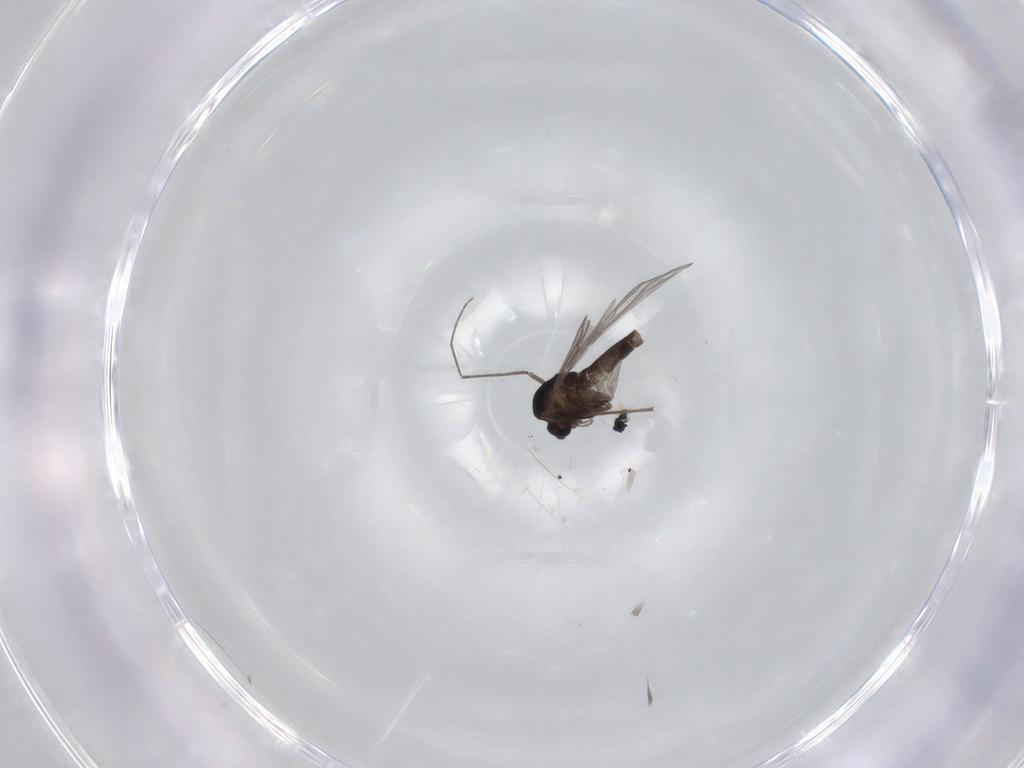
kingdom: Animalia
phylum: Arthropoda
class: Insecta
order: Diptera
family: Chironomidae
